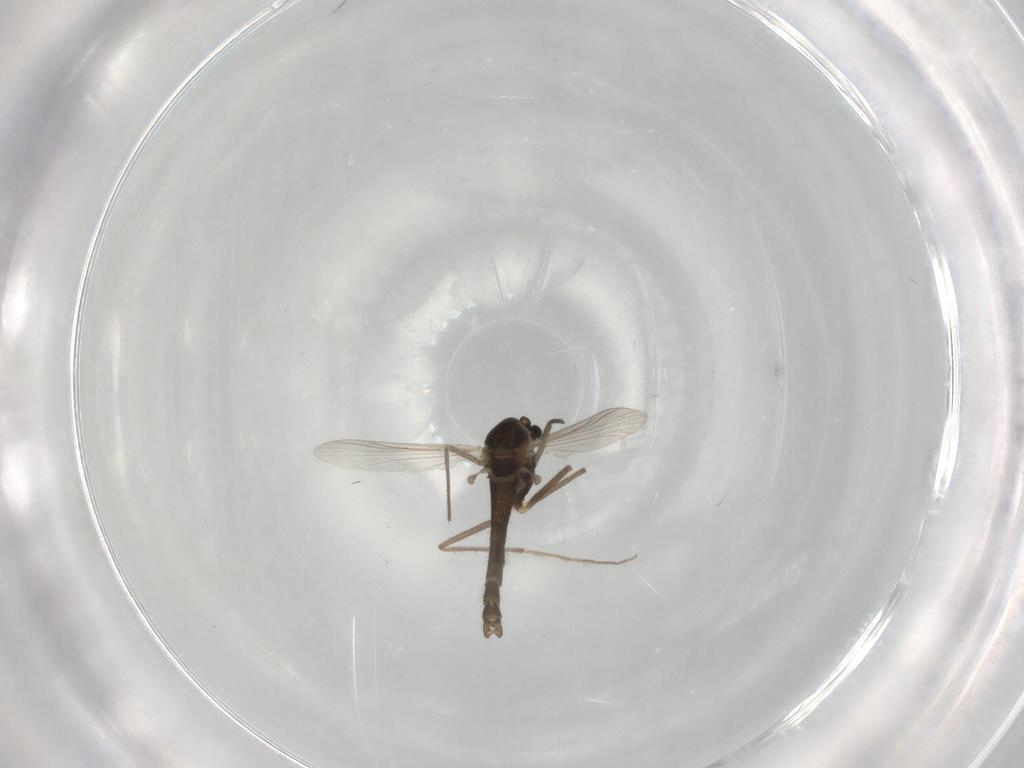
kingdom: Animalia
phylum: Arthropoda
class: Insecta
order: Diptera
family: Chironomidae
